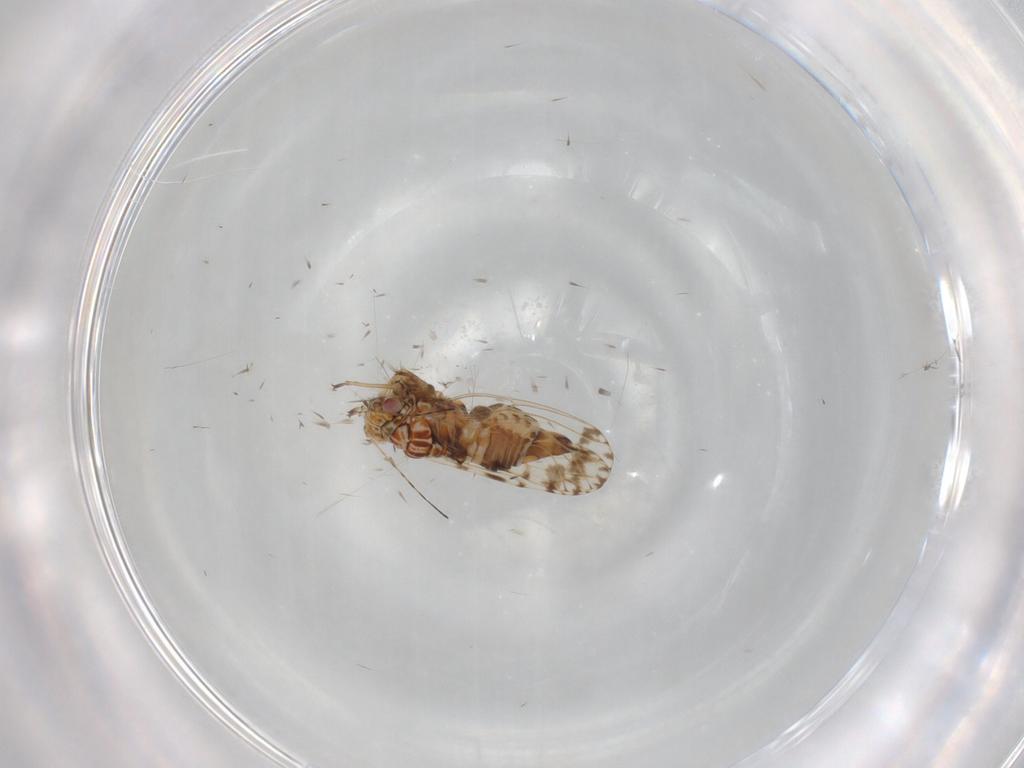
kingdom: Animalia
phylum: Arthropoda
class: Insecta
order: Hemiptera
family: Psyllidae
